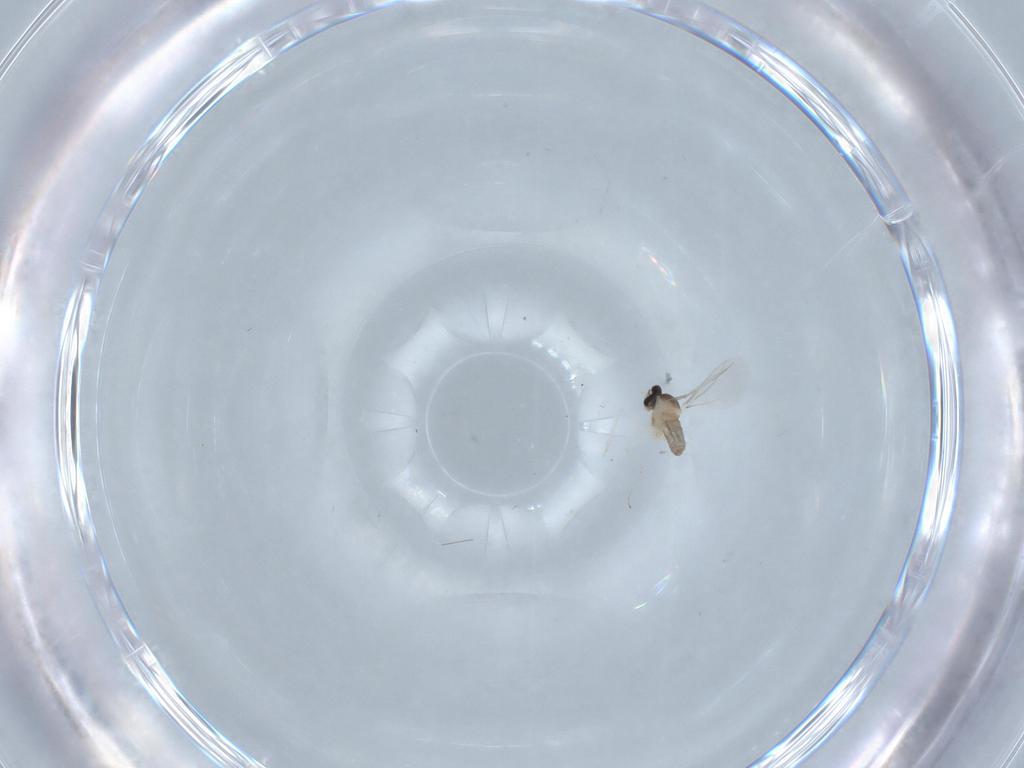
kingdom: Animalia
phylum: Arthropoda
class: Insecta
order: Diptera
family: Cecidomyiidae
